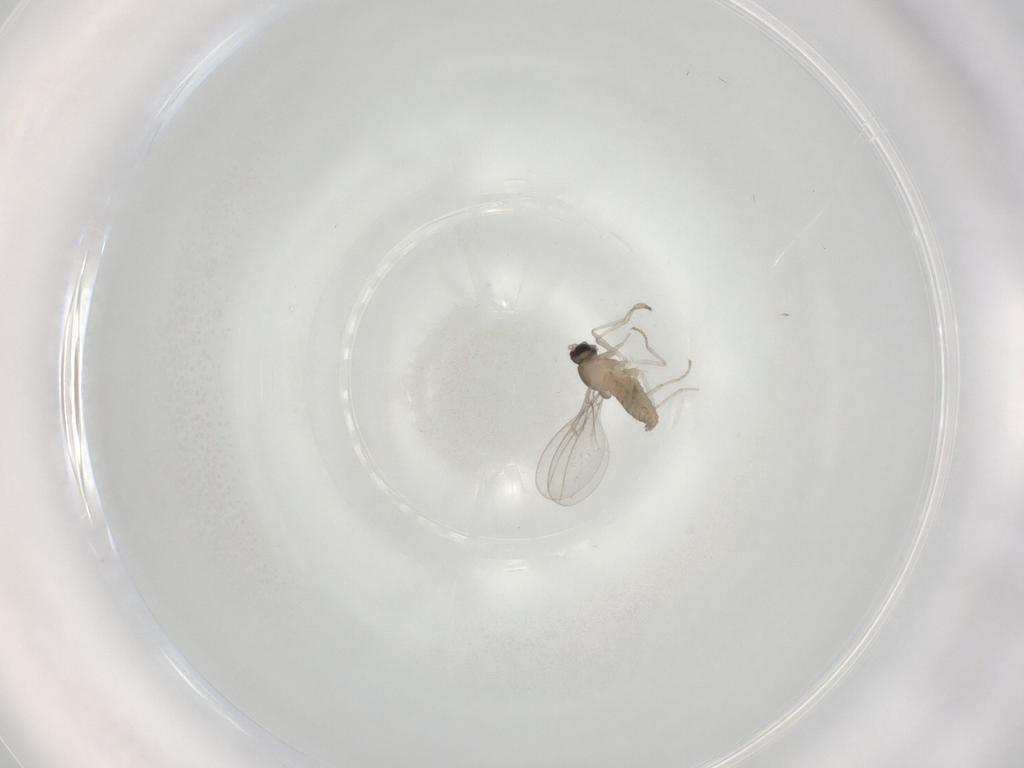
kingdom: Animalia
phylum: Arthropoda
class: Insecta
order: Diptera
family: Cecidomyiidae
